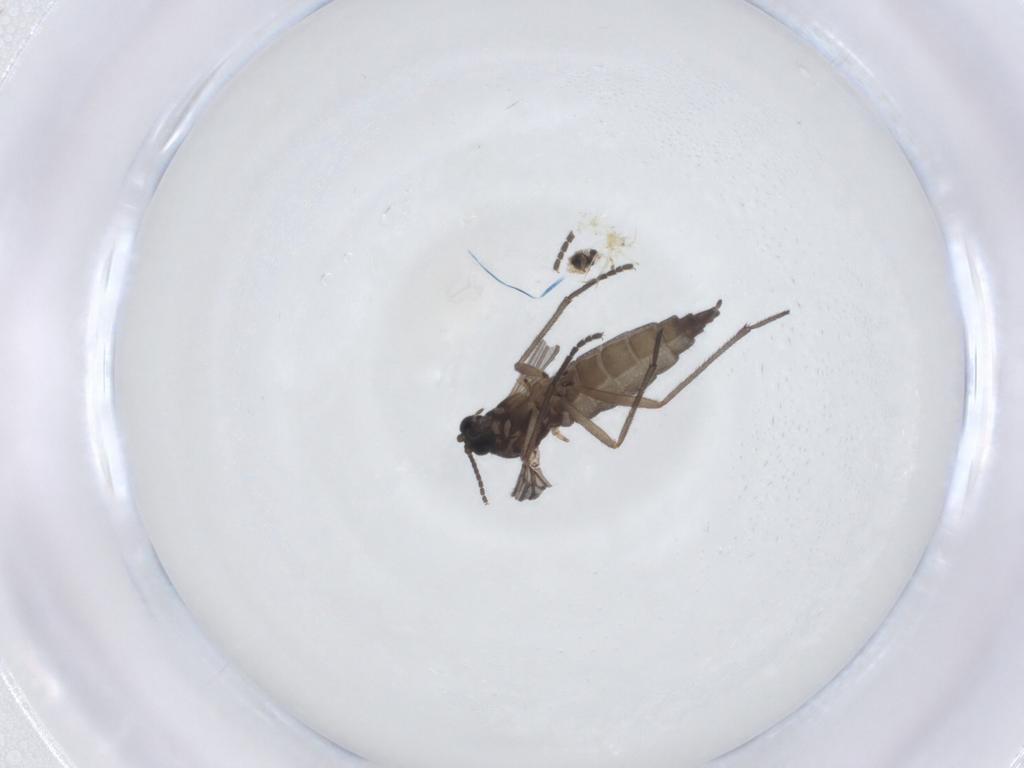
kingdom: Animalia
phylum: Arthropoda
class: Insecta
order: Diptera
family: Sciaridae
